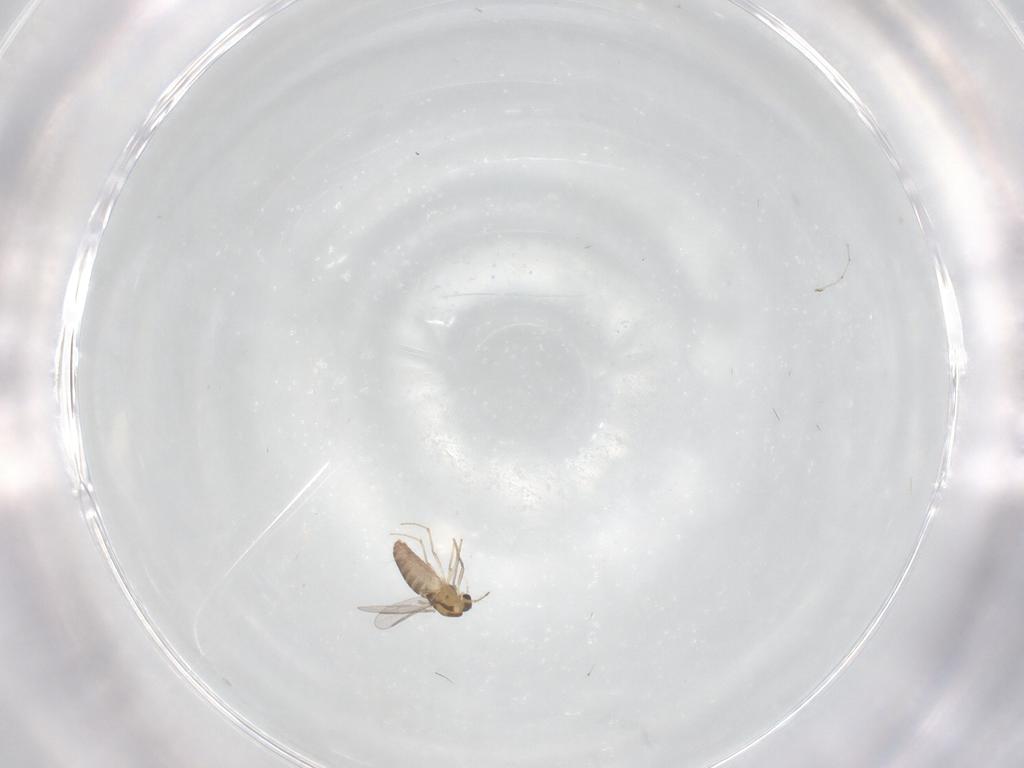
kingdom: Animalia
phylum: Arthropoda
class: Insecta
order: Diptera
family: Chironomidae
